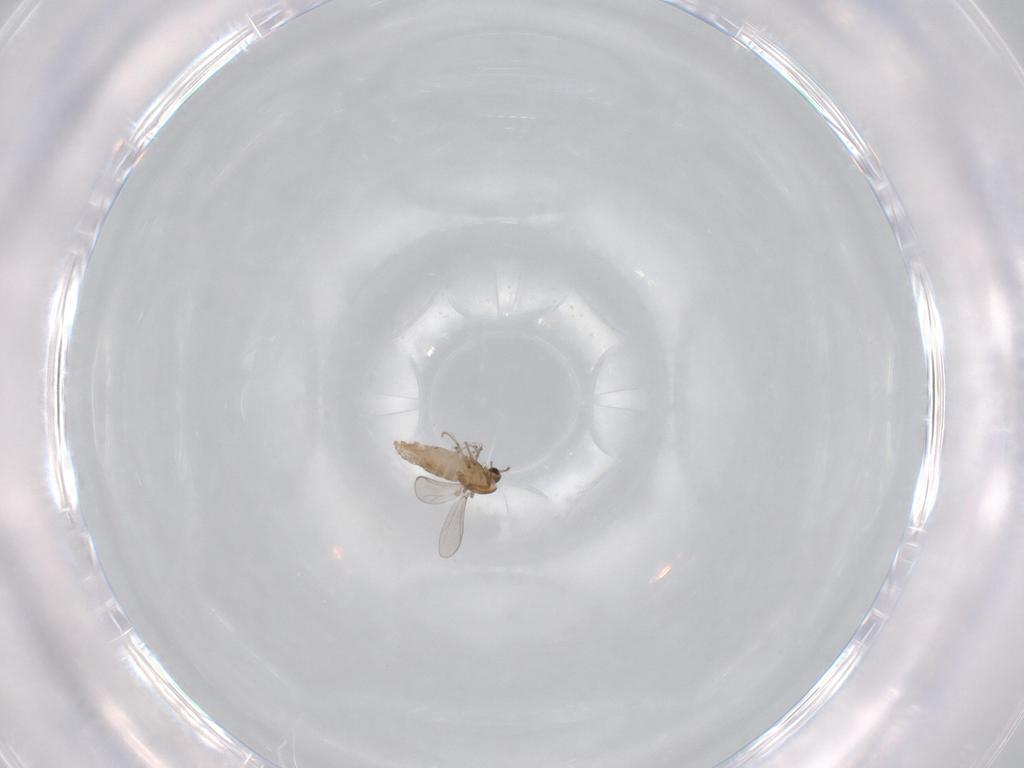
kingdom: Animalia
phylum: Arthropoda
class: Insecta
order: Diptera
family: Chironomidae
